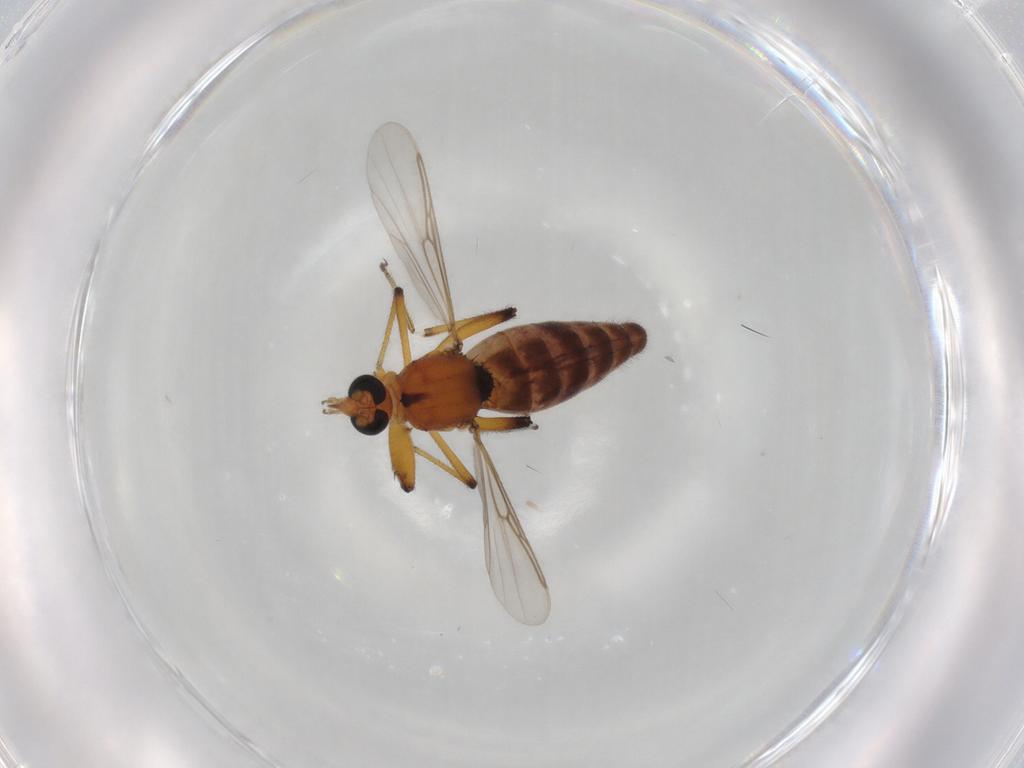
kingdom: Animalia
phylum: Arthropoda
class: Insecta
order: Diptera
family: Ceratopogonidae
